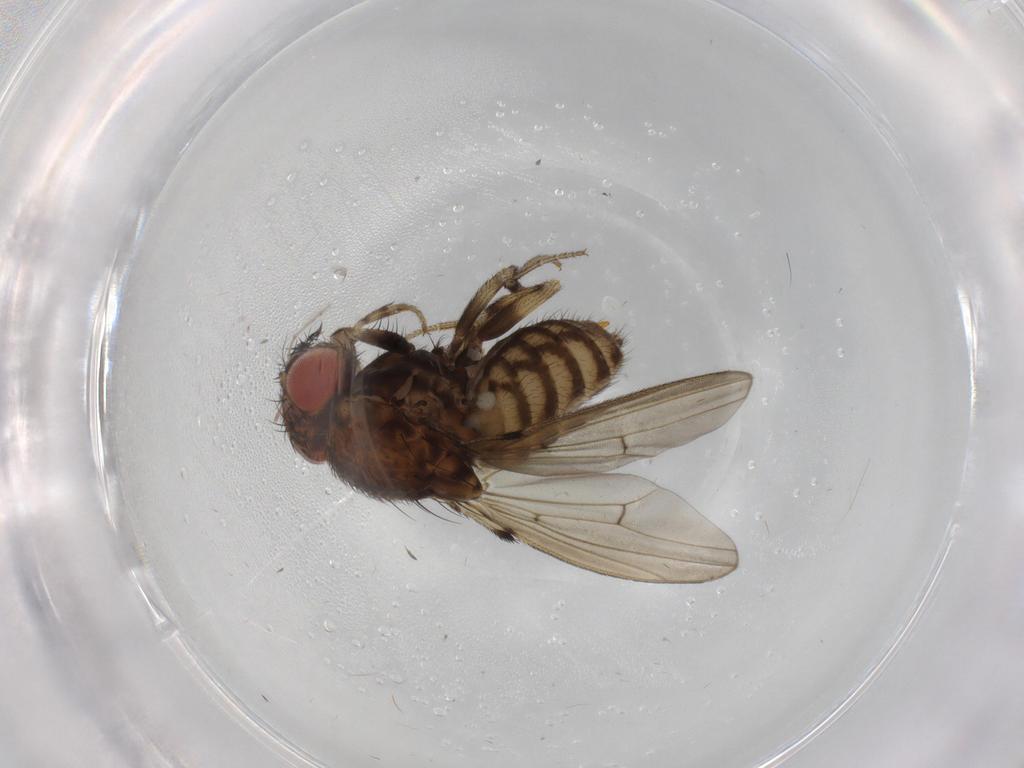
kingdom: Animalia
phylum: Arthropoda
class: Insecta
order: Diptera
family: Drosophilidae
